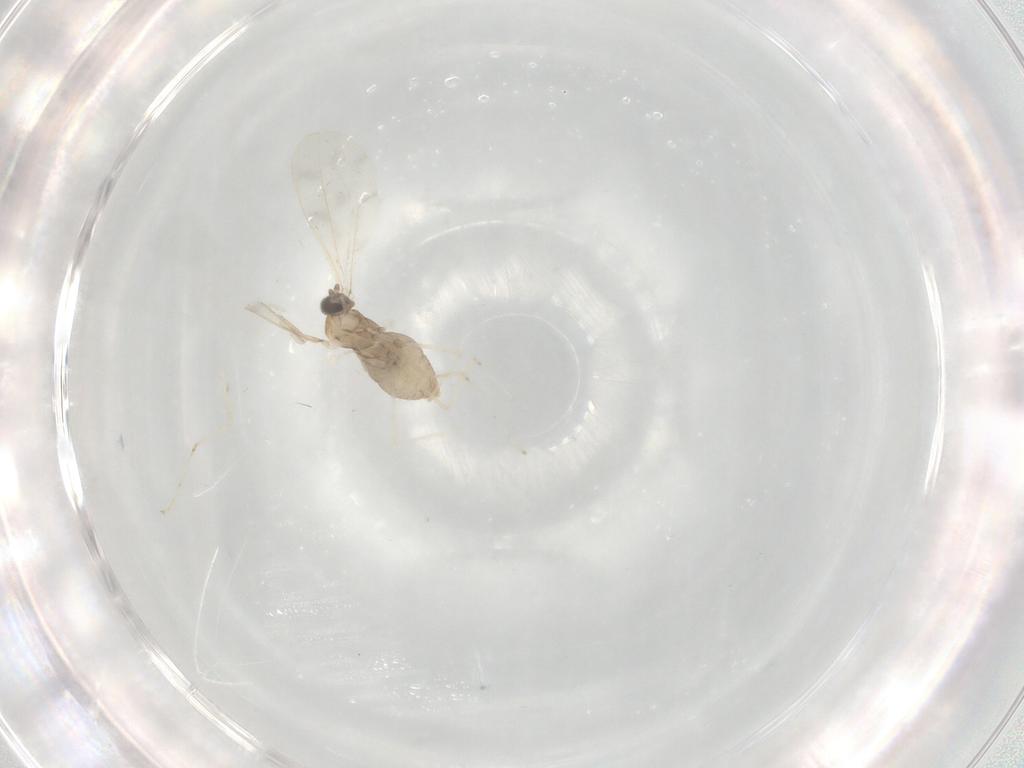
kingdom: Animalia
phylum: Arthropoda
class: Insecta
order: Diptera
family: Cecidomyiidae
